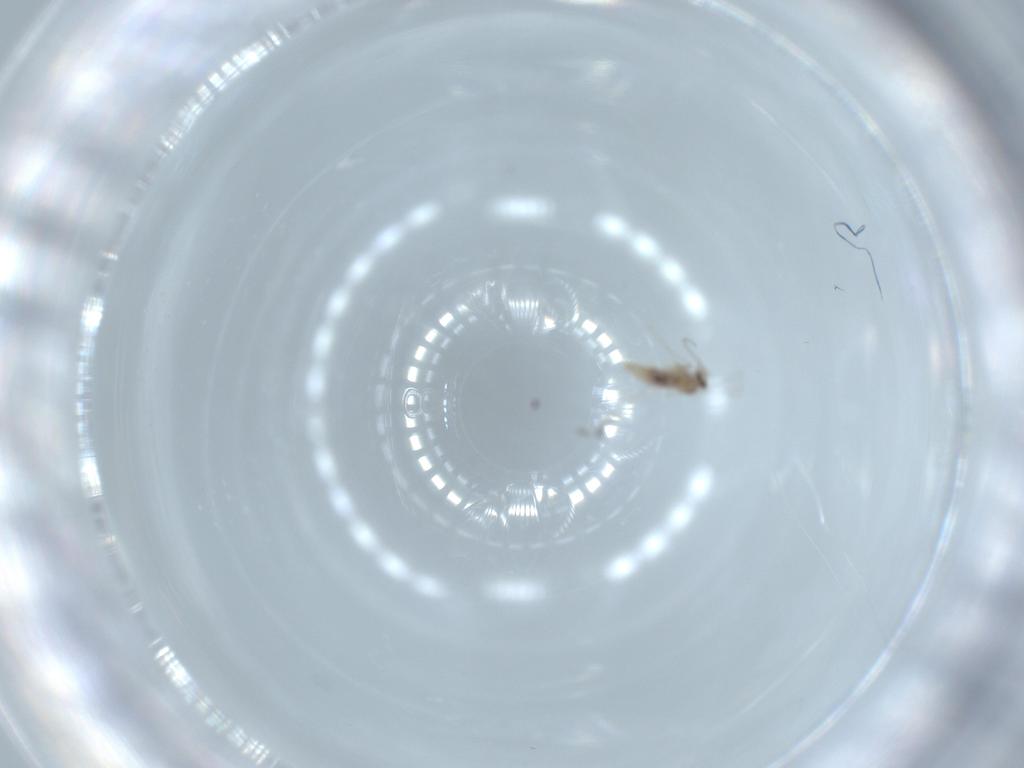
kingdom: Animalia
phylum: Arthropoda
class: Insecta
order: Diptera
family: Cecidomyiidae
